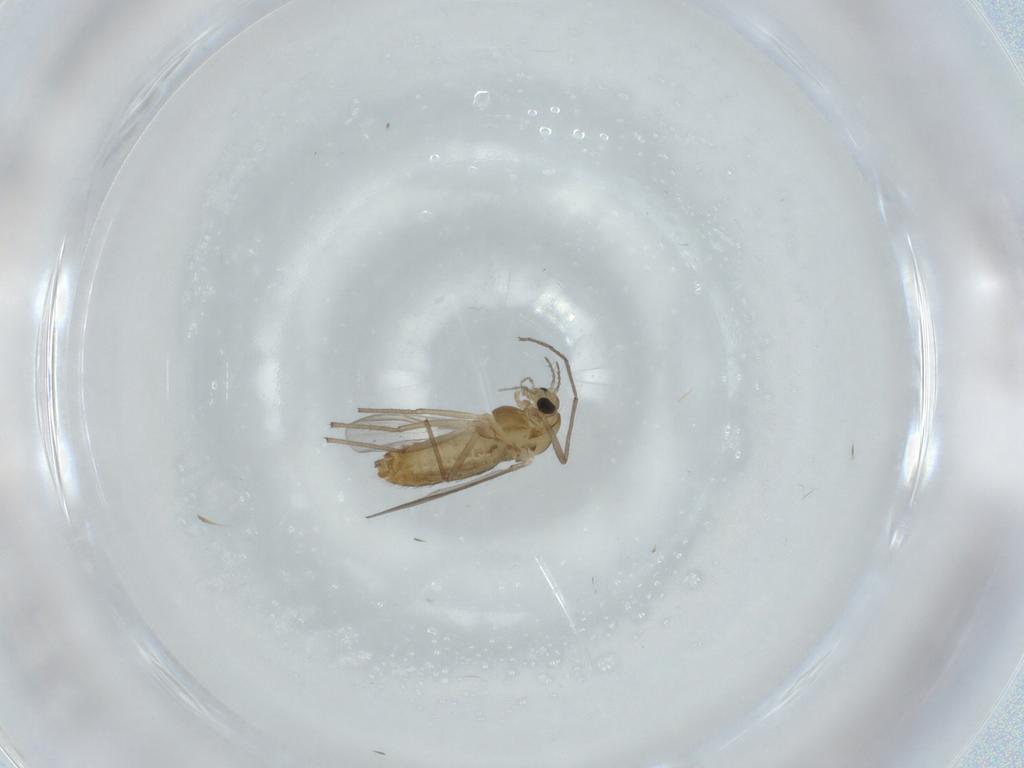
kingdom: Animalia
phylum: Arthropoda
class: Insecta
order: Diptera
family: Chironomidae
